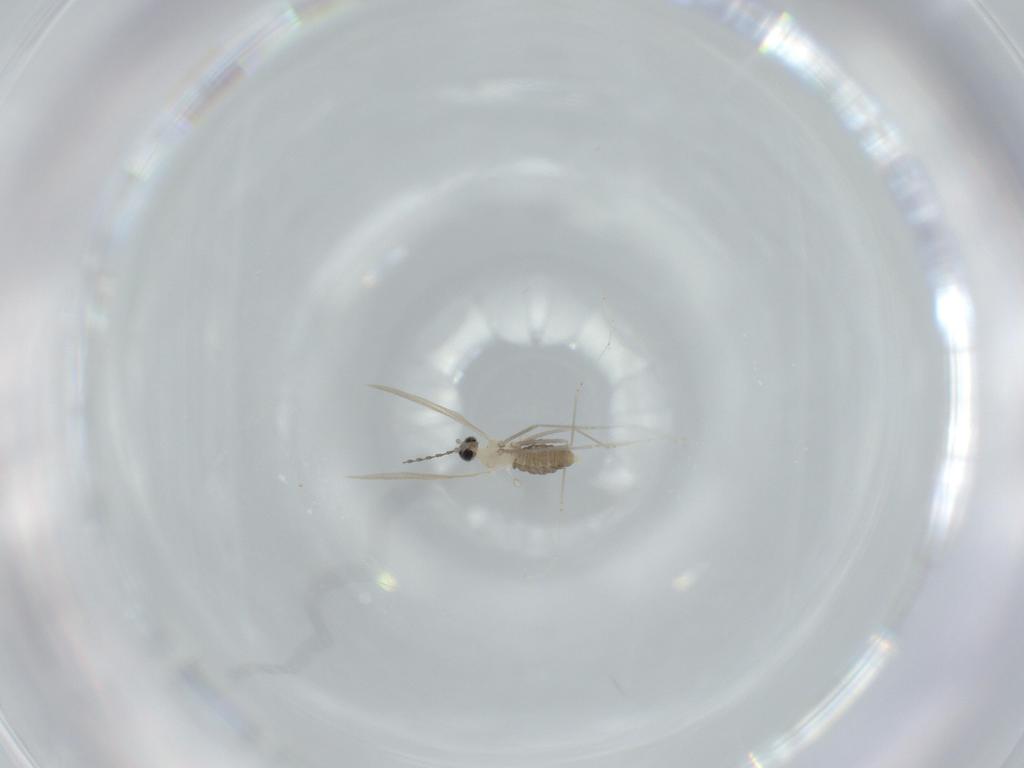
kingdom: Animalia
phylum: Arthropoda
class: Insecta
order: Diptera
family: Cecidomyiidae
